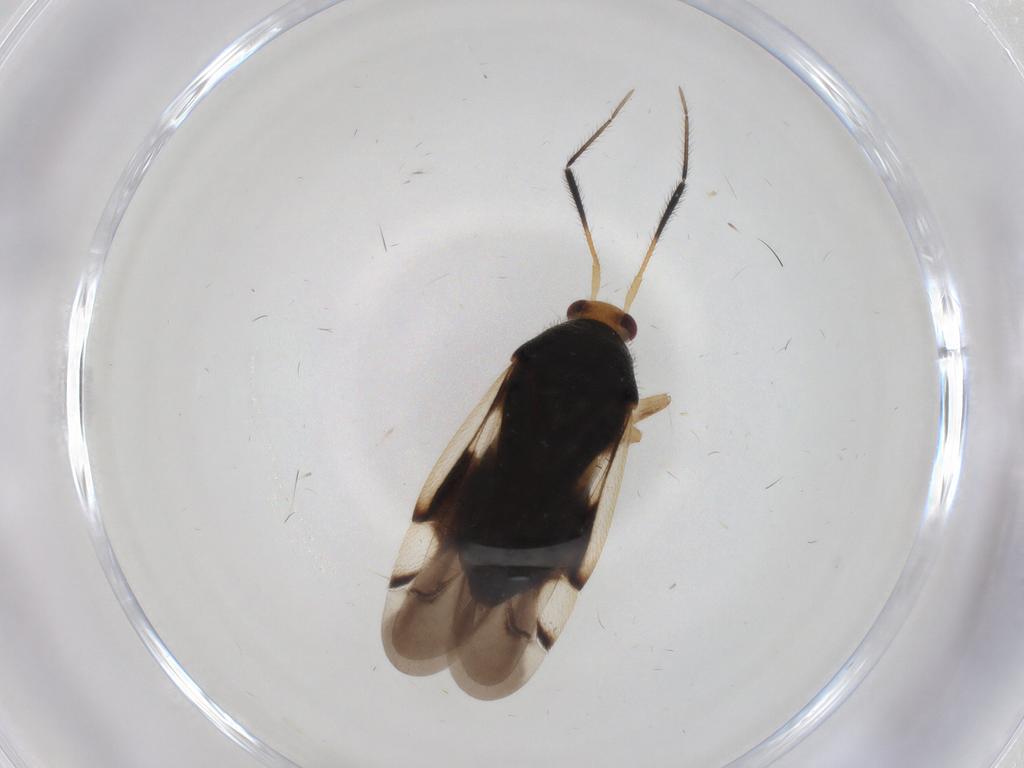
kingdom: Animalia
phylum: Arthropoda
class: Insecta
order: Hemiptera
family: Miridae
